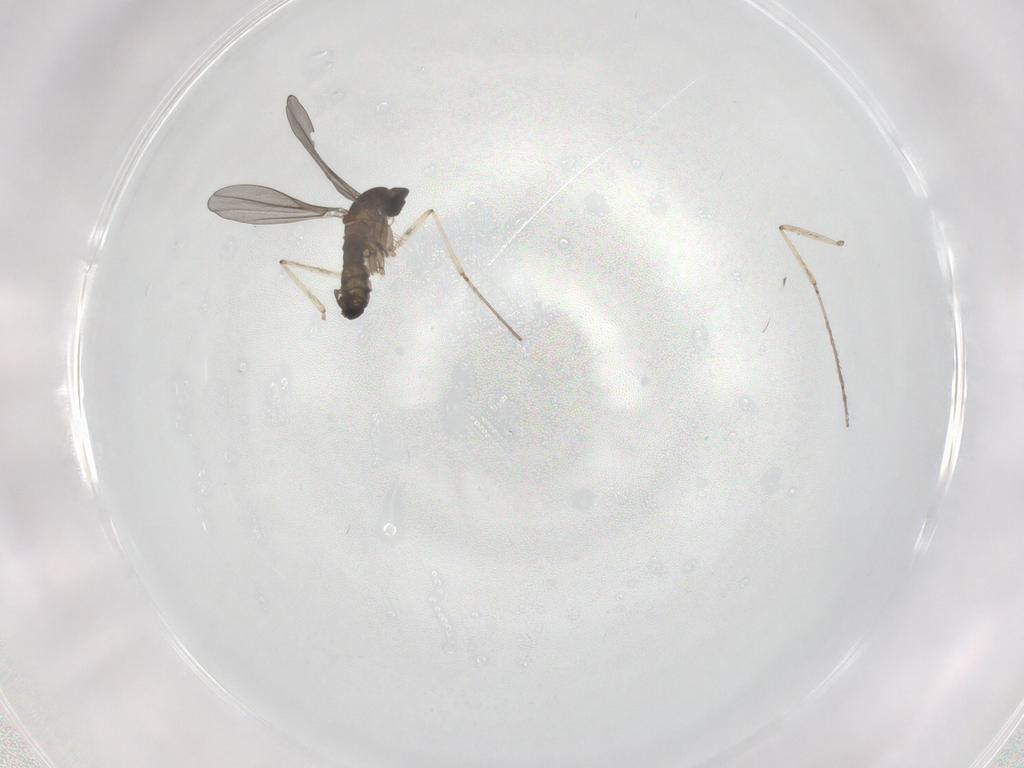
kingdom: Animalia
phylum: Arthropoda
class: Insecta
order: Diptera
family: Cecidomyiidae
